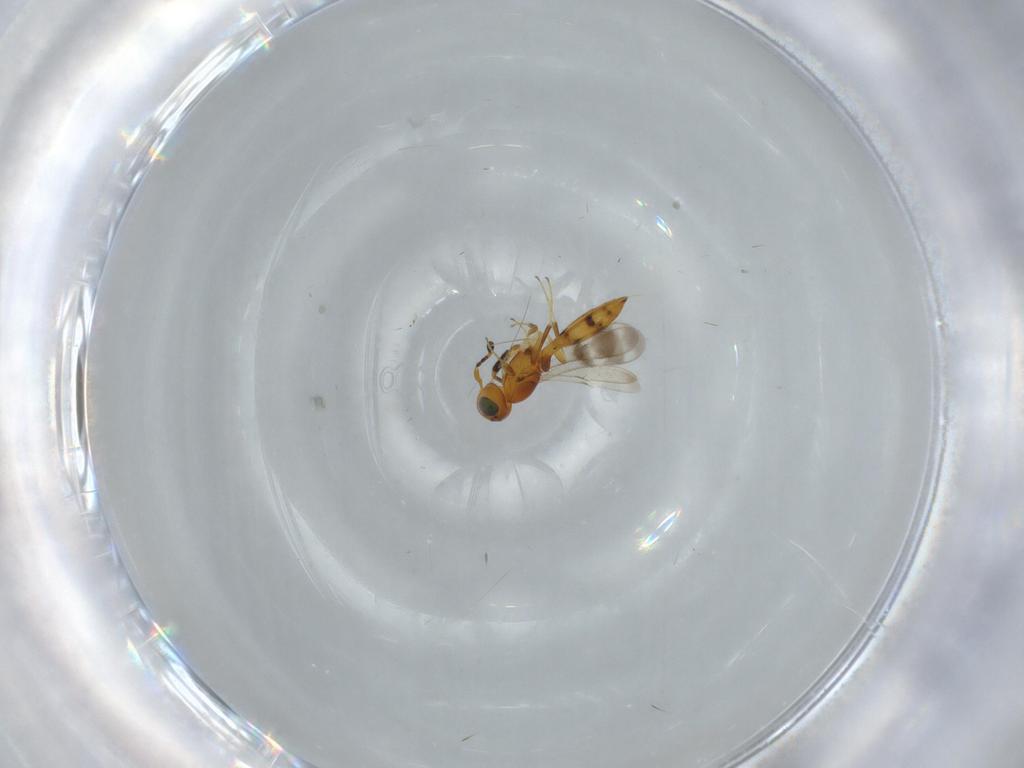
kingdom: Animalia
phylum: Arthropoda
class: Insecta
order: Hymenoptera
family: Scelionidae
